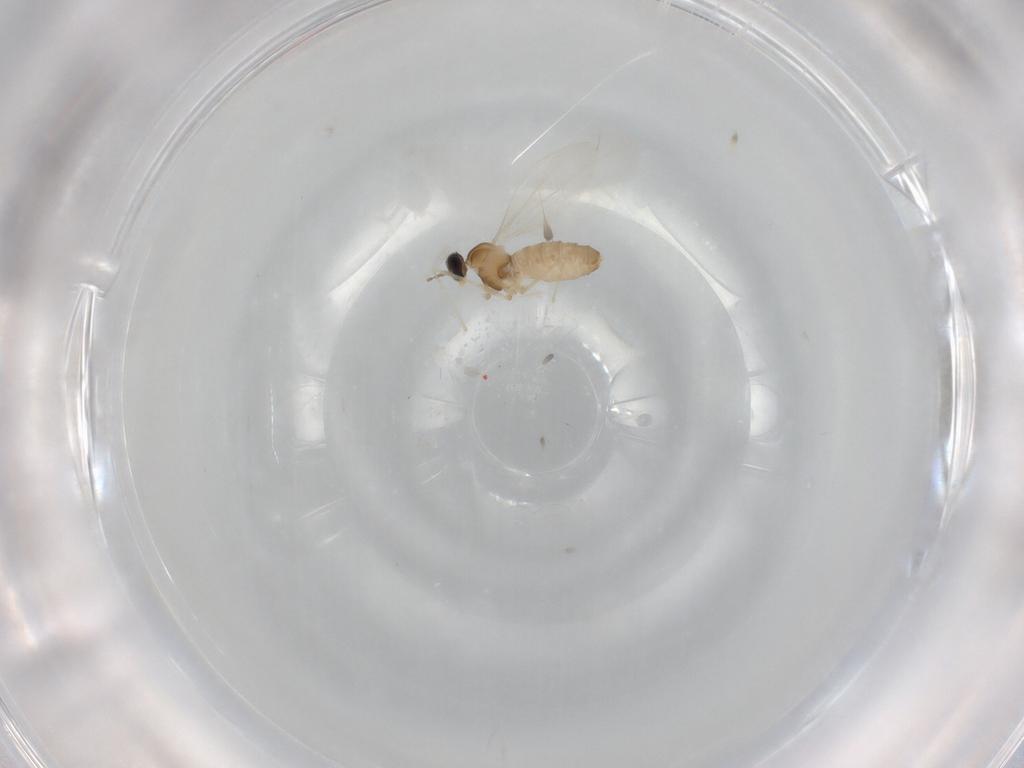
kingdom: Animalia
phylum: Arthropoda
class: Insecta
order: Diptera
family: Cecidomyiidae
